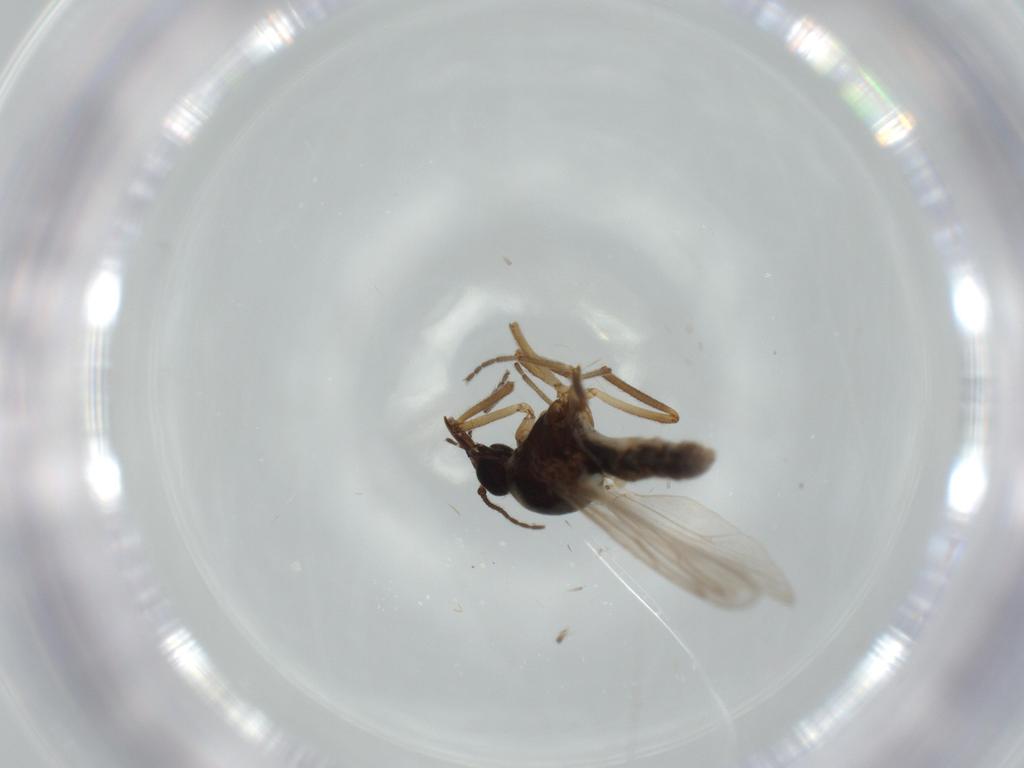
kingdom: Animalia
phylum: Arthropoda
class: Insecta
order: Diptera
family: Ceratopogonidae
